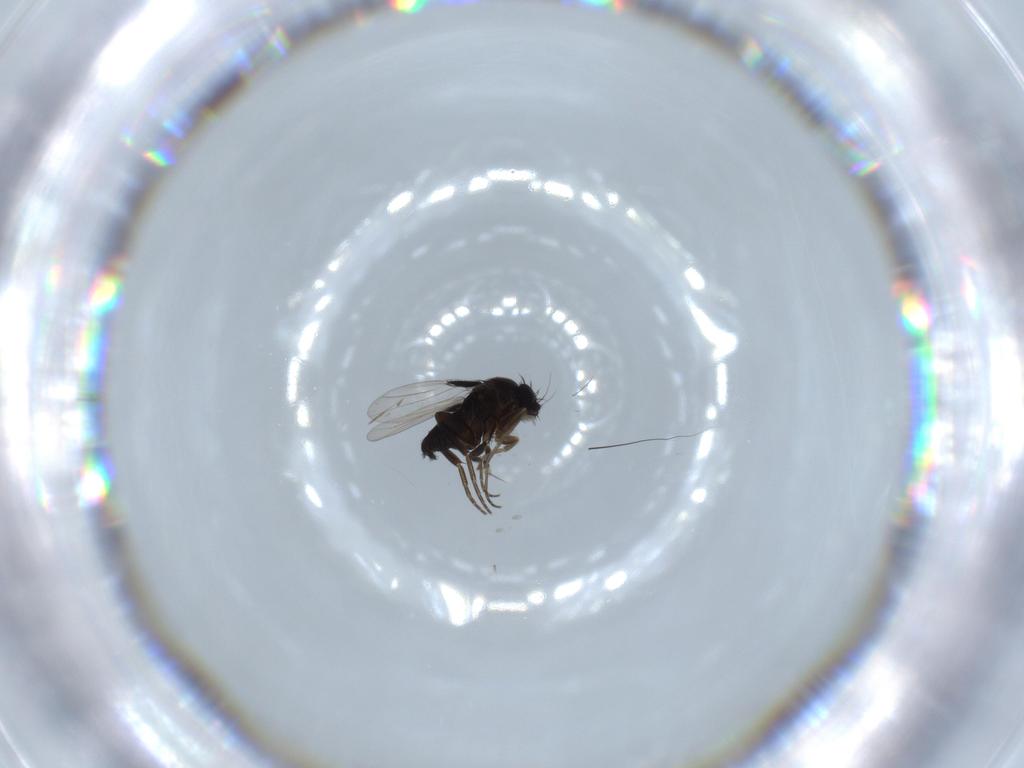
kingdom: Animalia
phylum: Arthropoda
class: Insecta
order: Diptera
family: Phoridae
